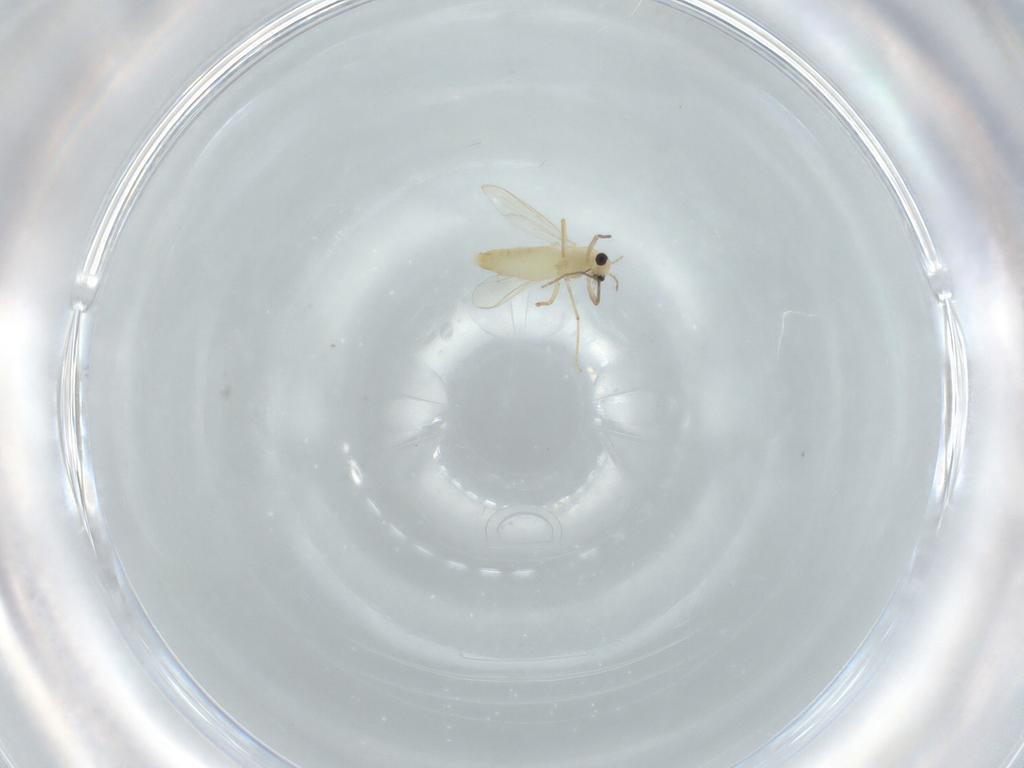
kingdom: Animalia
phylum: Arthropoda
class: Insecta
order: Diptera
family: Chironomidae
